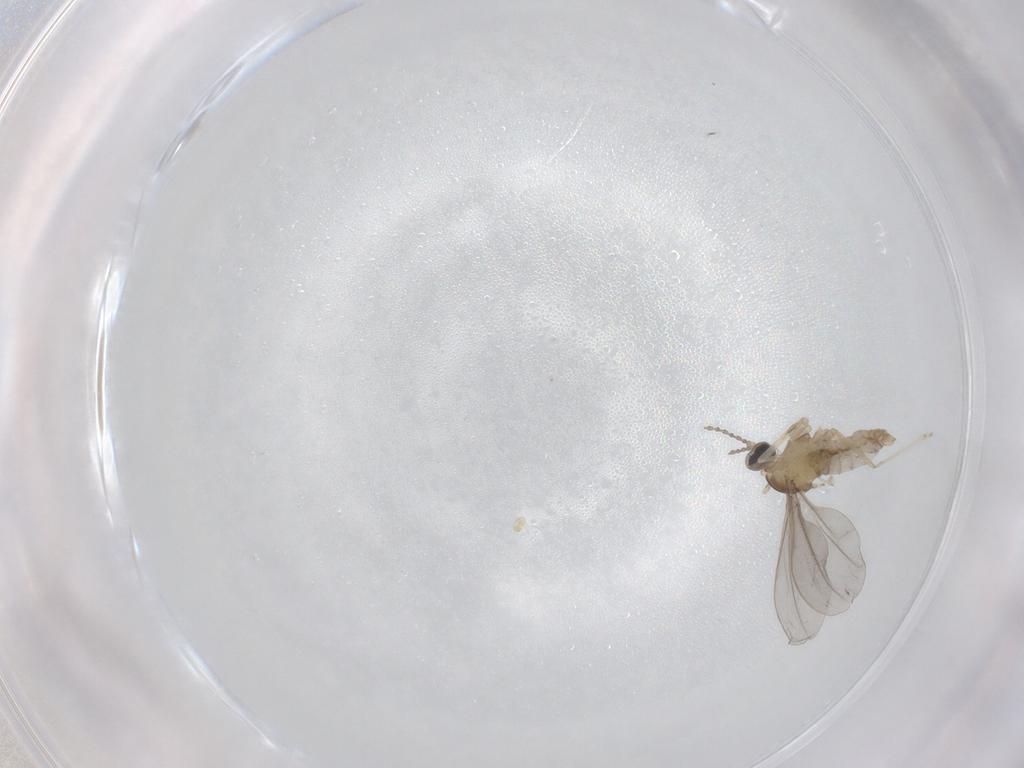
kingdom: Animalia
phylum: Arthropoda
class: Insecta
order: Diptera
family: Cecidomyiidae
